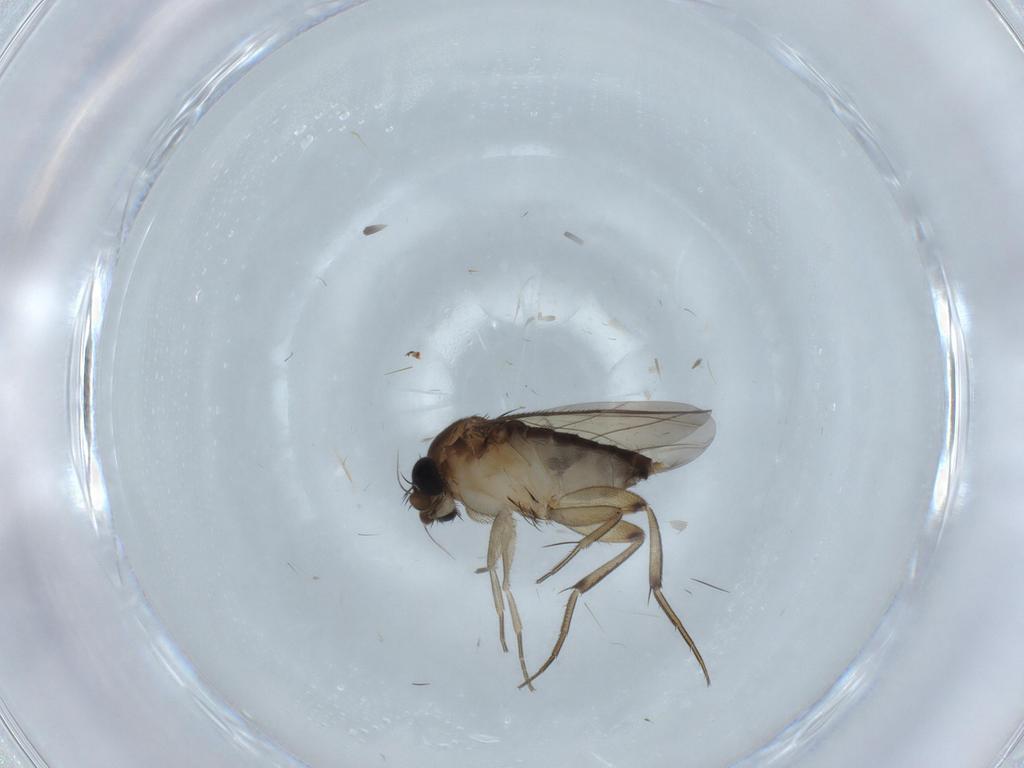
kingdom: Animalia
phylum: Arthropoda
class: Insecta
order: Diptera
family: Phoridae
